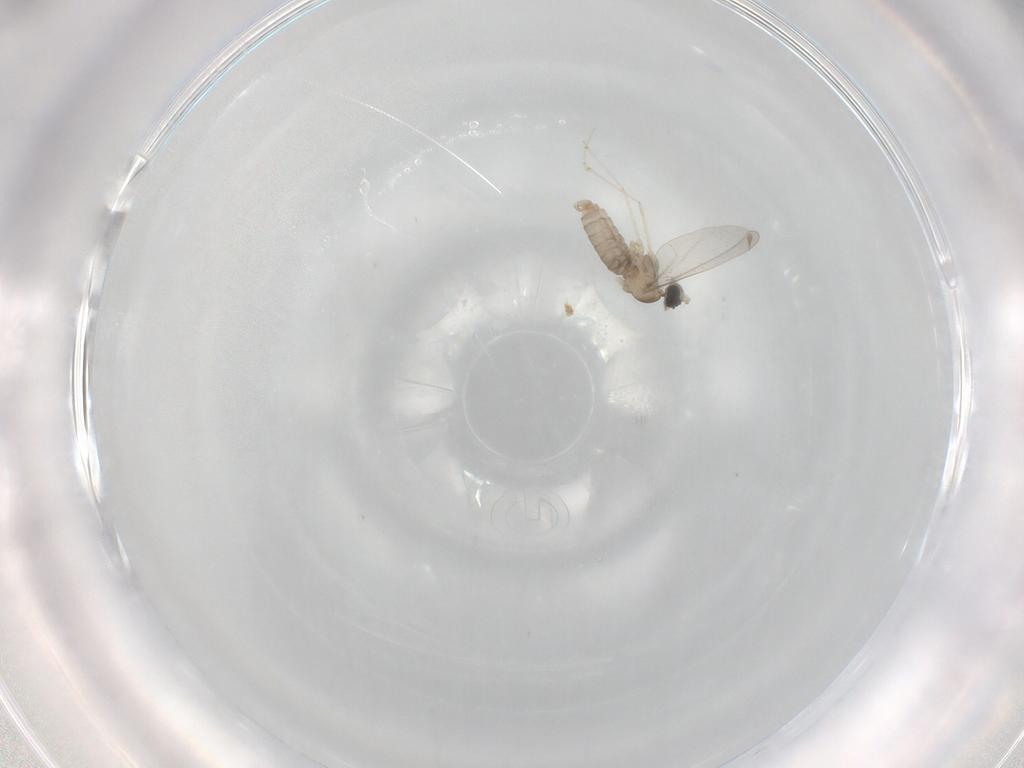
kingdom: Animalia
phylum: Arthropoda
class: Insecta
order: Diptera
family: Cecidomyiidae
